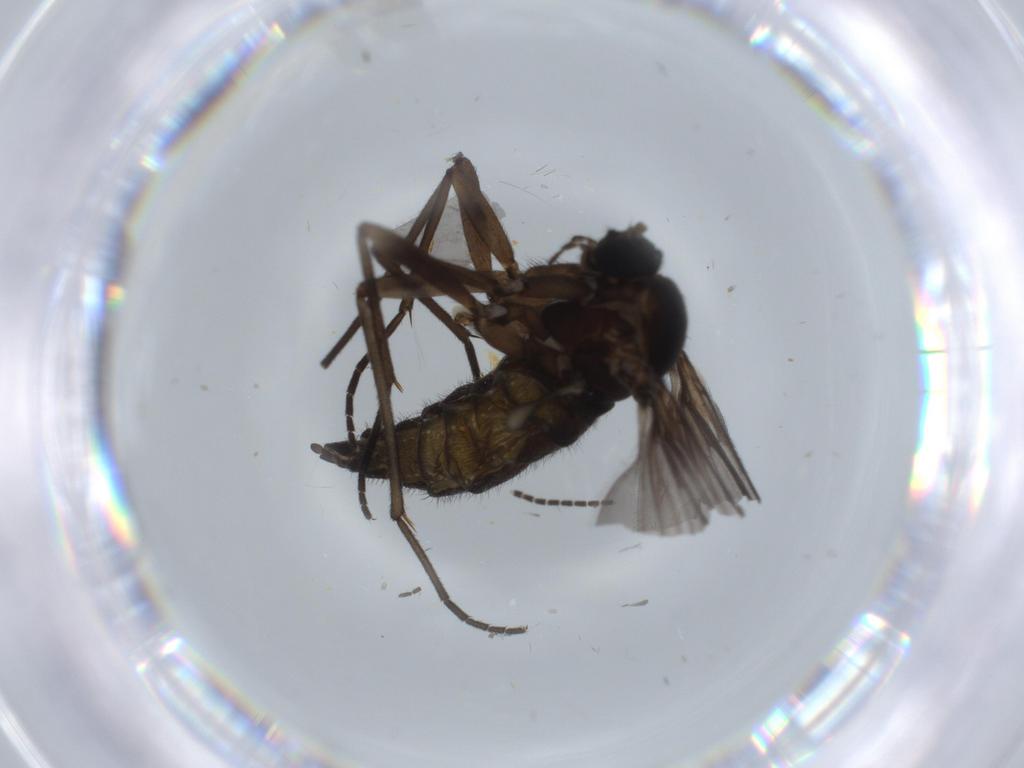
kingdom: Animalia
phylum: Arthropoda
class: Insecta
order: Diptera
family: Sciaridae
